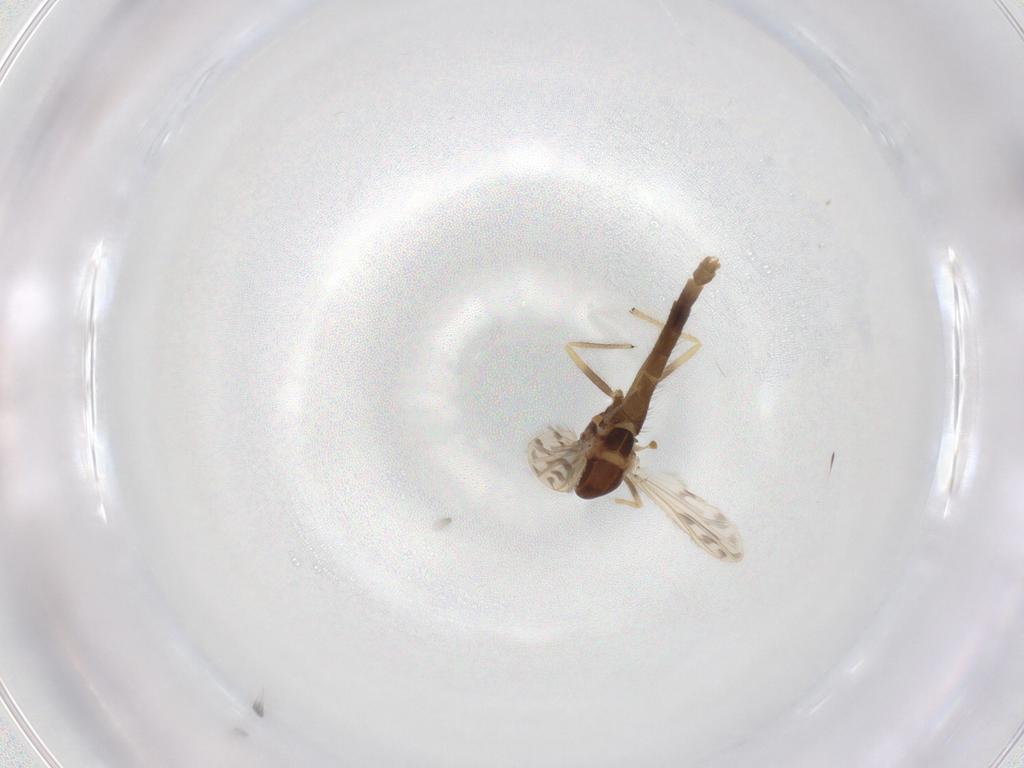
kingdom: Animalia
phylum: Arthropoda
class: Insecta
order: Diptera
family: Chironomidae
